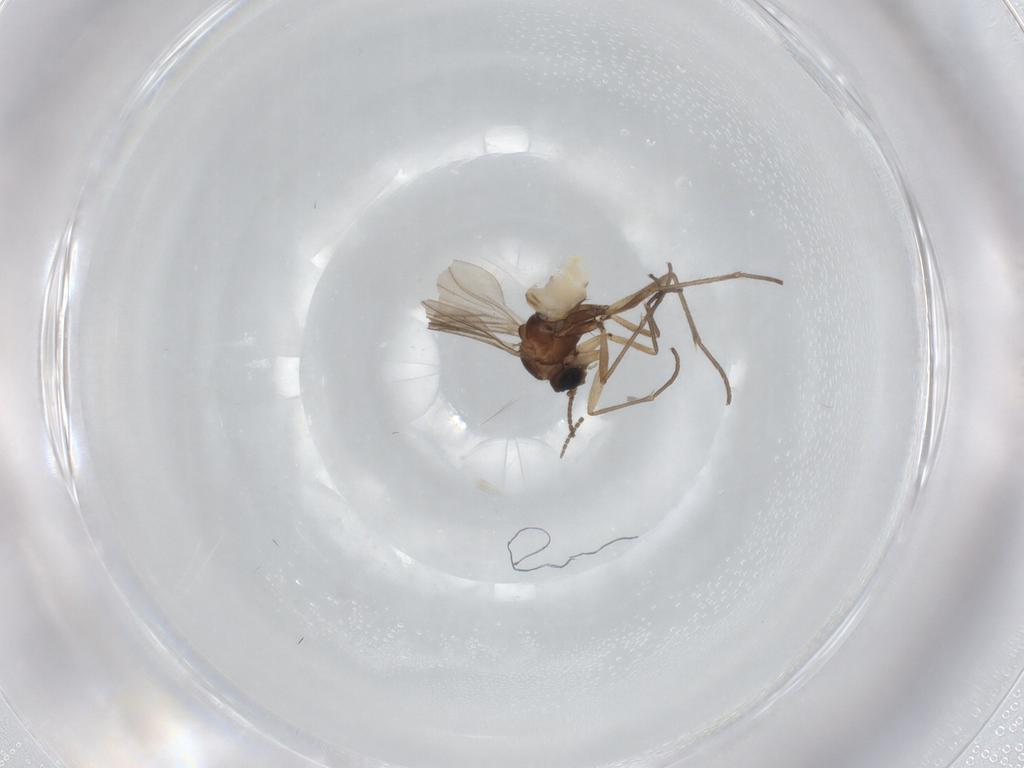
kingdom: Animalia
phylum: Arthropoda
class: Insecta
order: Diptera
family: Sciaridae
